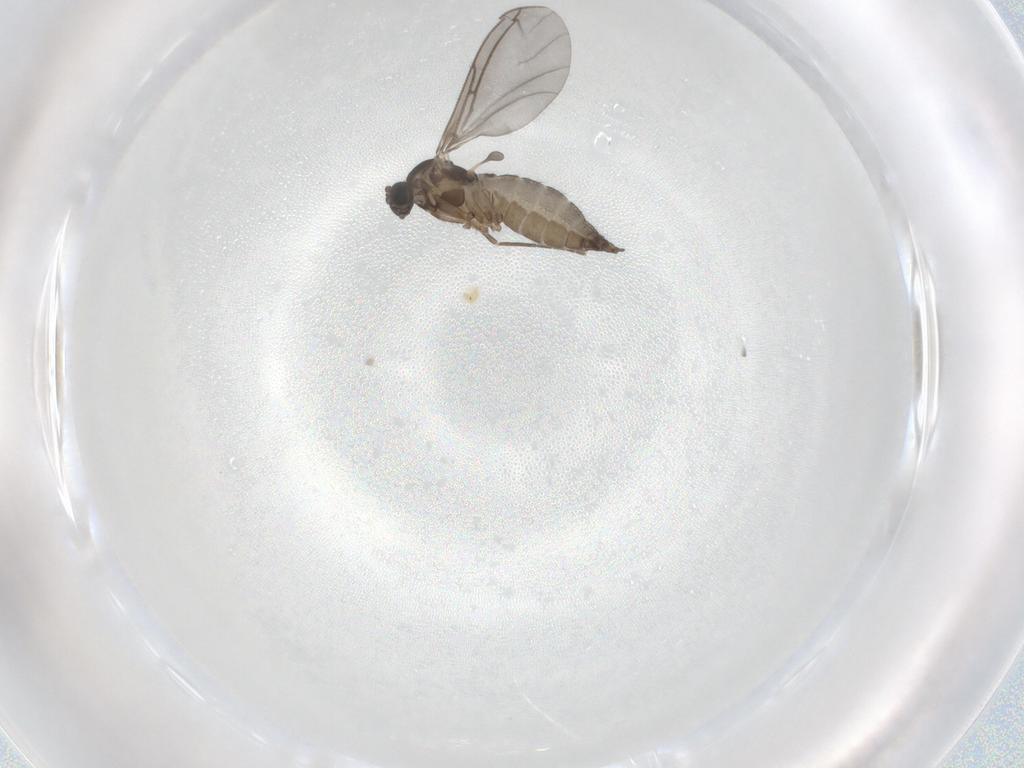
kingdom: Animalia
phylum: Arthropoda
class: Insecta
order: Diptera
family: Sciaridae
